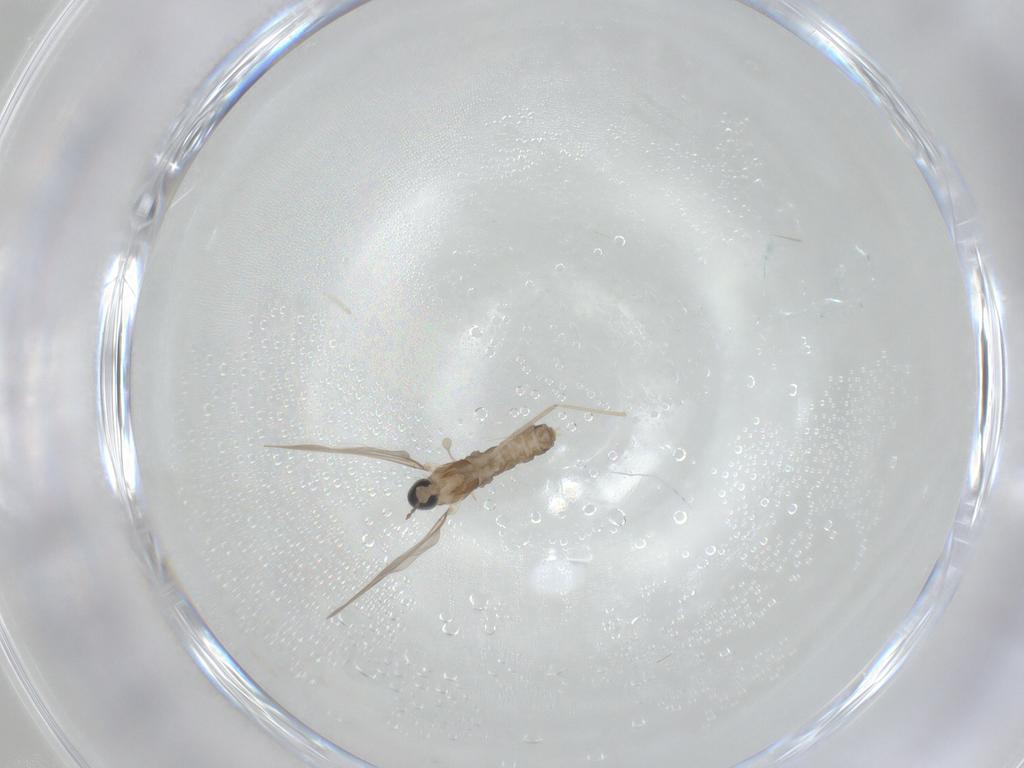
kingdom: Animalia
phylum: Arthropoda
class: Insecta
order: Diptera
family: Cecidomyiidae
